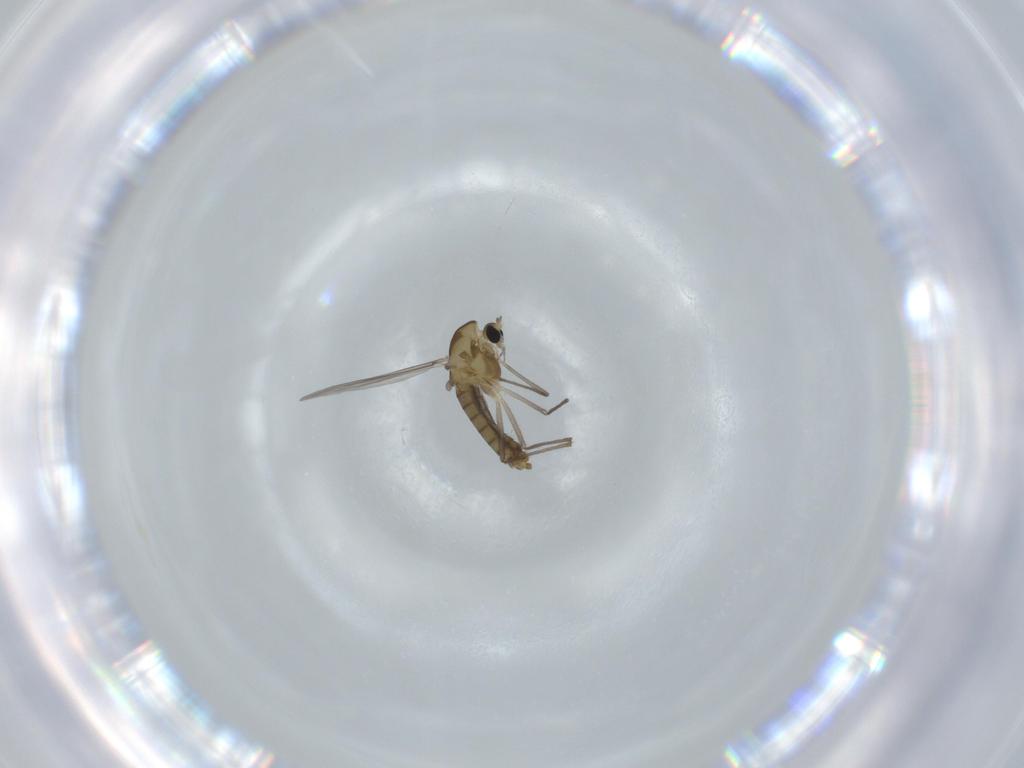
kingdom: Animalia
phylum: Arthropoda
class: Insecta
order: Diptera
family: Chironomidae
